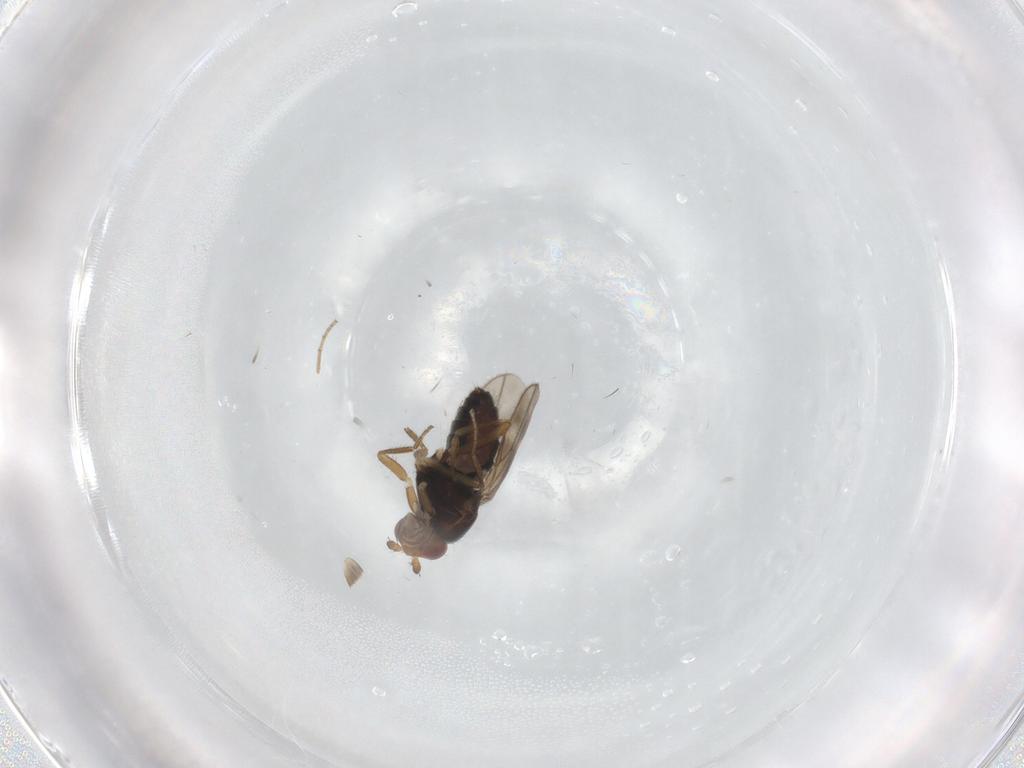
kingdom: Animalia
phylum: Arthropoda
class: Insecta
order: Diptera
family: Sphaeroceridae
